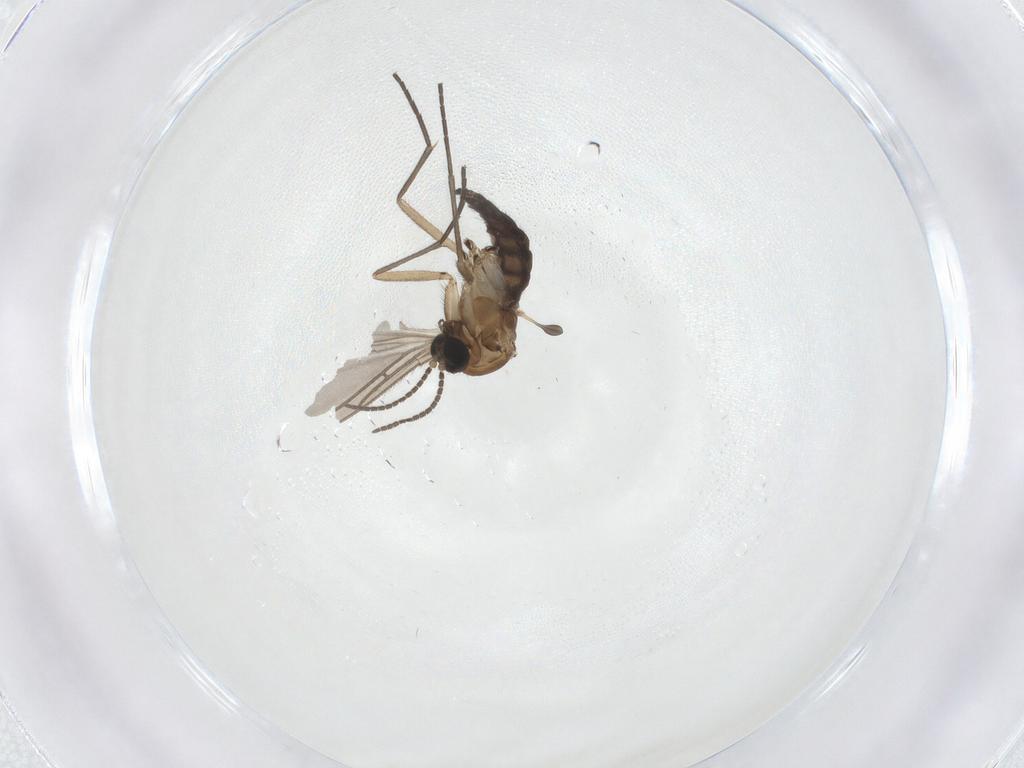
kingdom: Animalia
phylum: Arthropoda
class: Insecta
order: Diptera
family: Sciaridae
